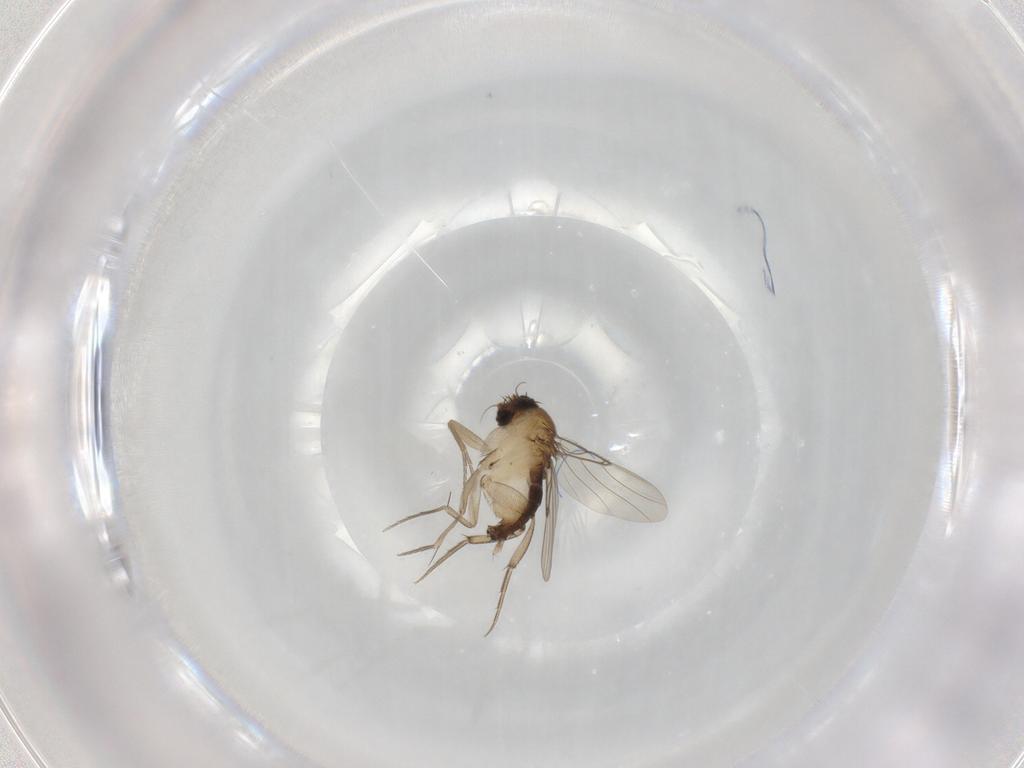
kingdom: Animalia
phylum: Arthropoda
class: Insecta
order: Diptera
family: Phoridae
